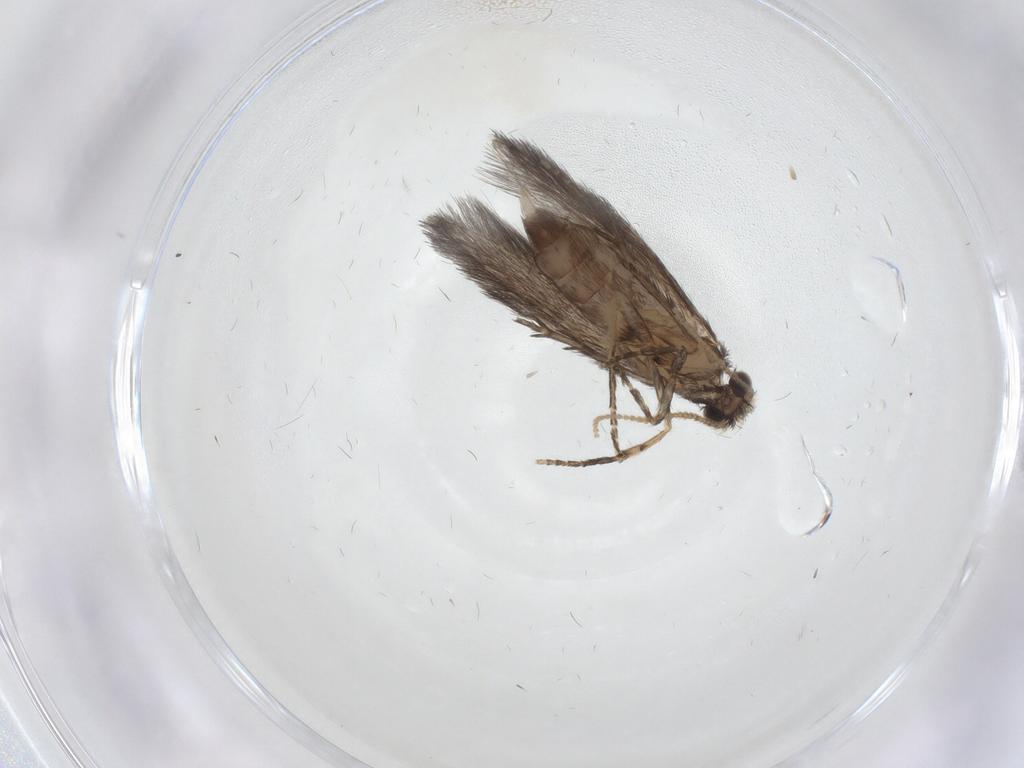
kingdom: Animalia
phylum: Arthropoda
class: Insecta
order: Trichoptera
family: Hydroptilidae
